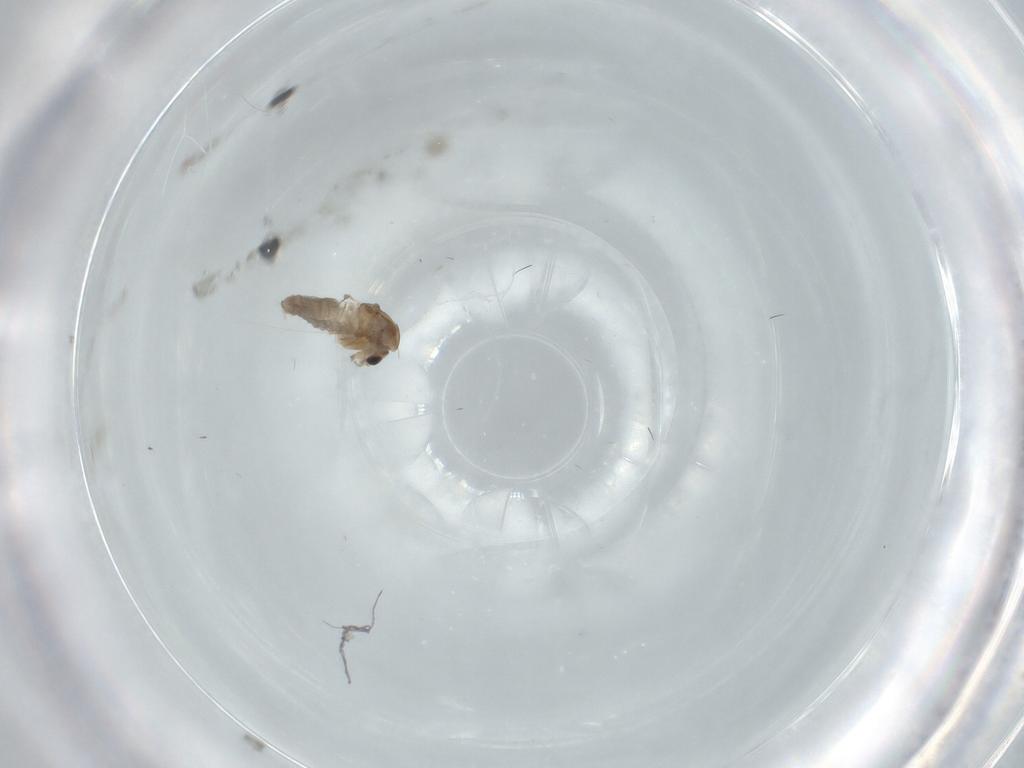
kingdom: Animalia
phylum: Arthropoda
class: Insecta
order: Diptera
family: Chironomidae
